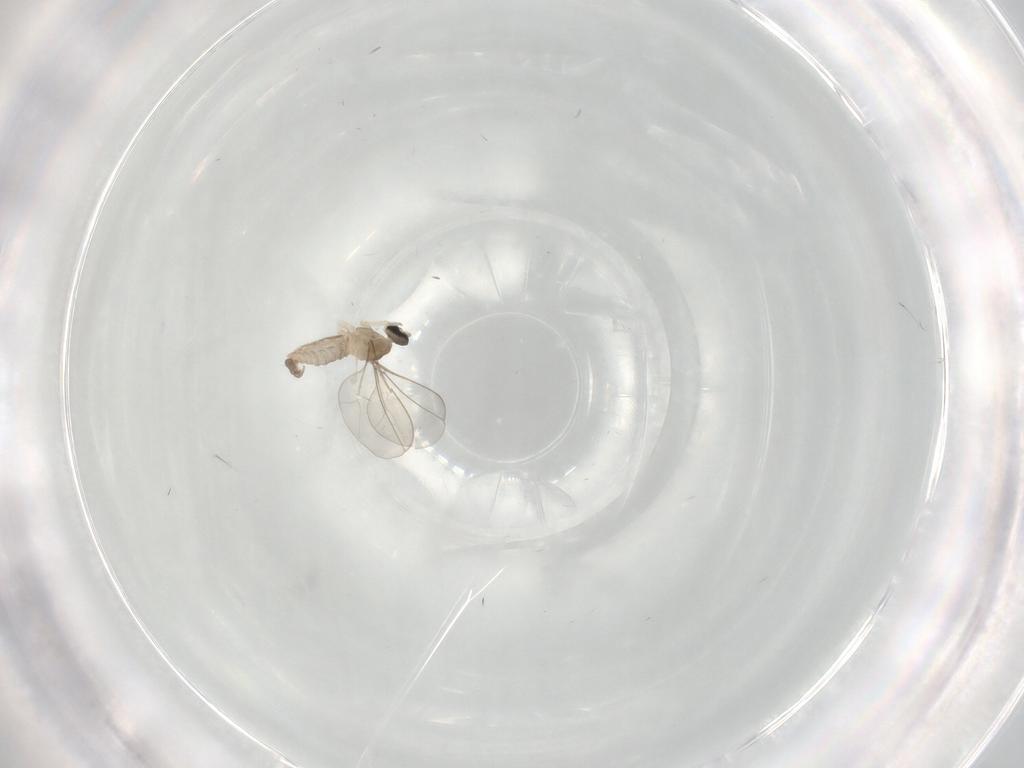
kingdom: Animalia
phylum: Arthropoda
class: Insecta
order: Diptera
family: Cecidomyiidae
